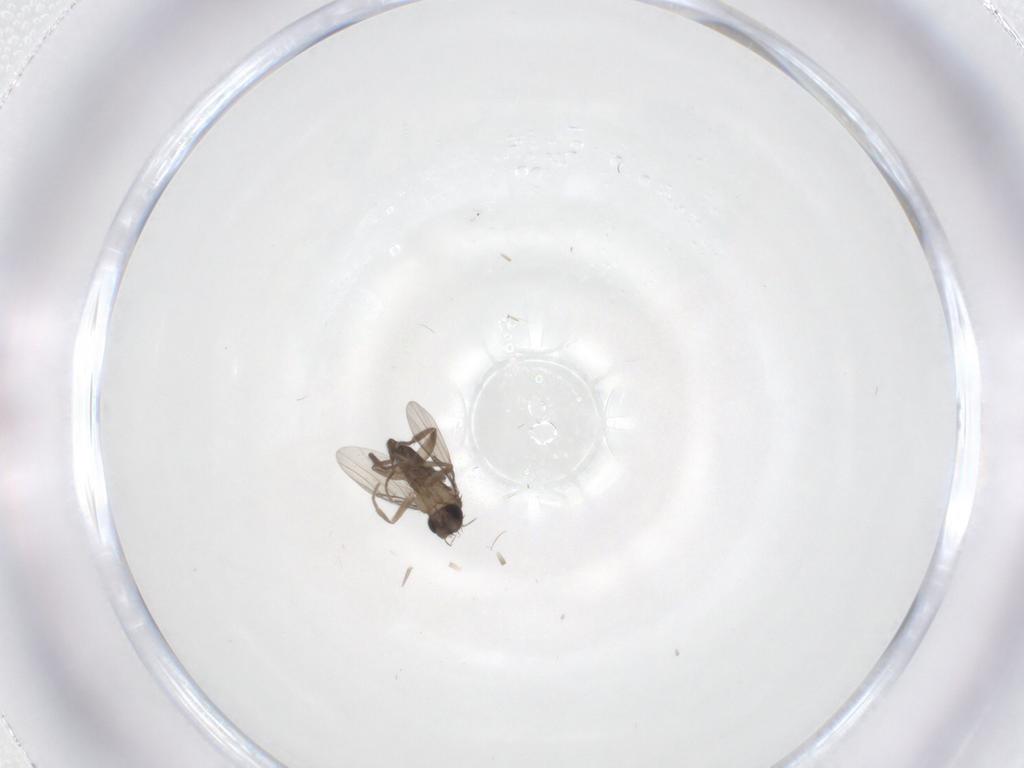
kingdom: Animalia
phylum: Arthropoda
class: Insecta
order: Diptera
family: Phoridae
